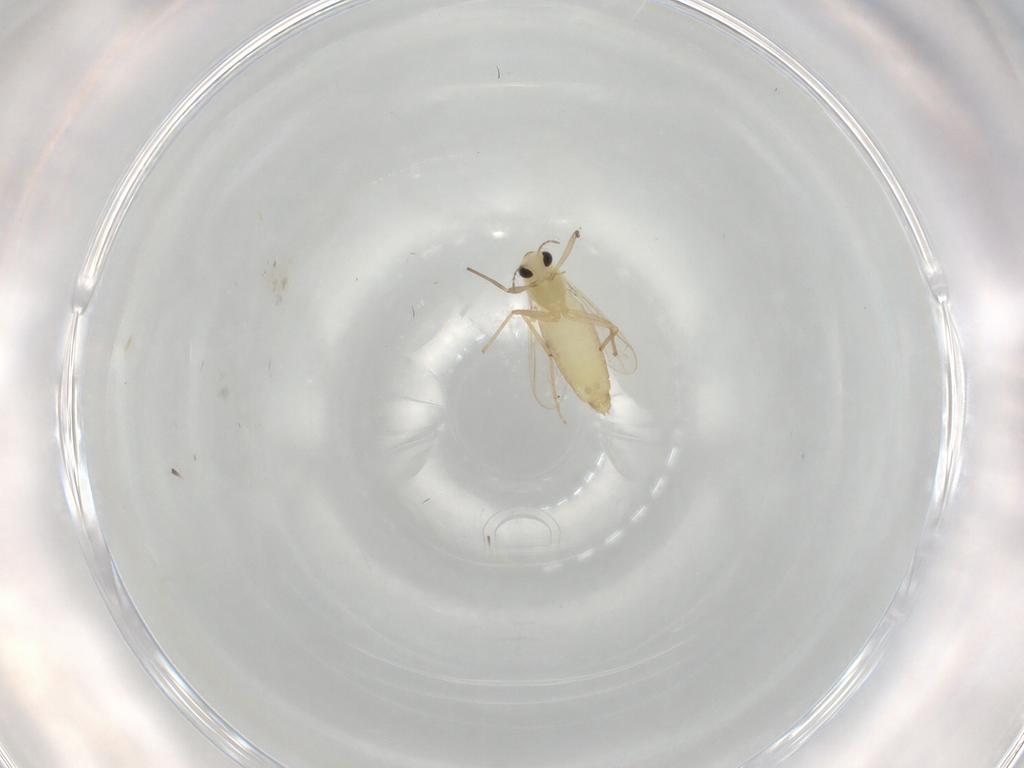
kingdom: Animalia
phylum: Arthropoda
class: Insecta
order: Diptera
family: Chironomidae
